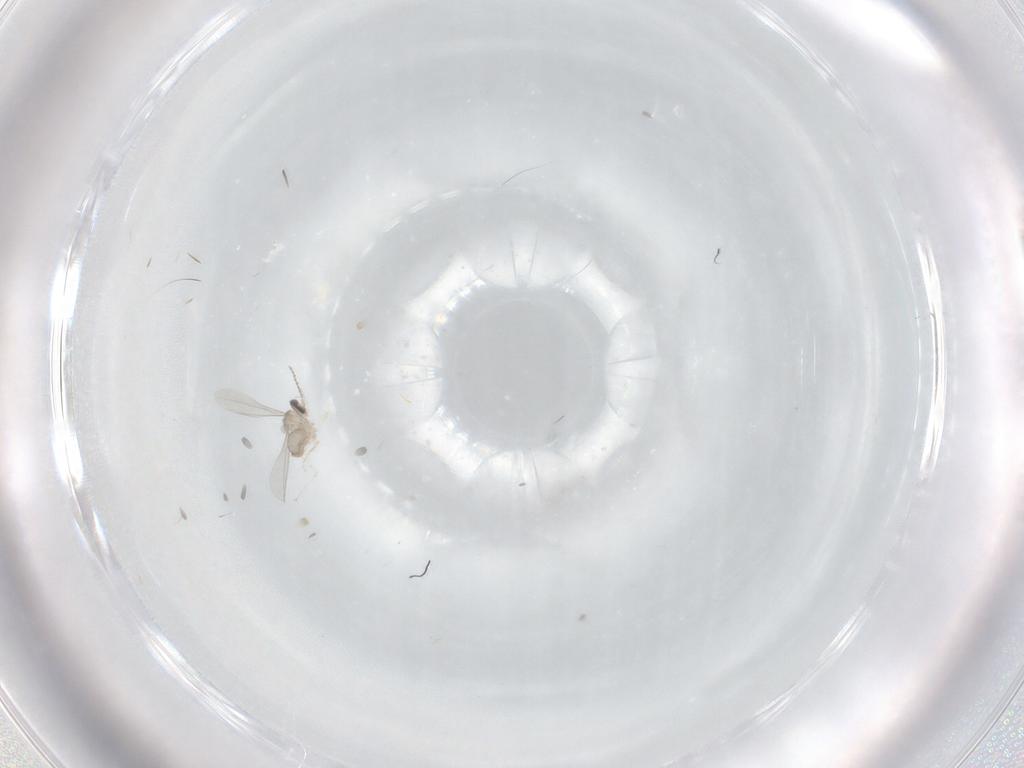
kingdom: Animalia
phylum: Arthropoda
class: Insecta
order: Diptera
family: Cecidomyiidae
